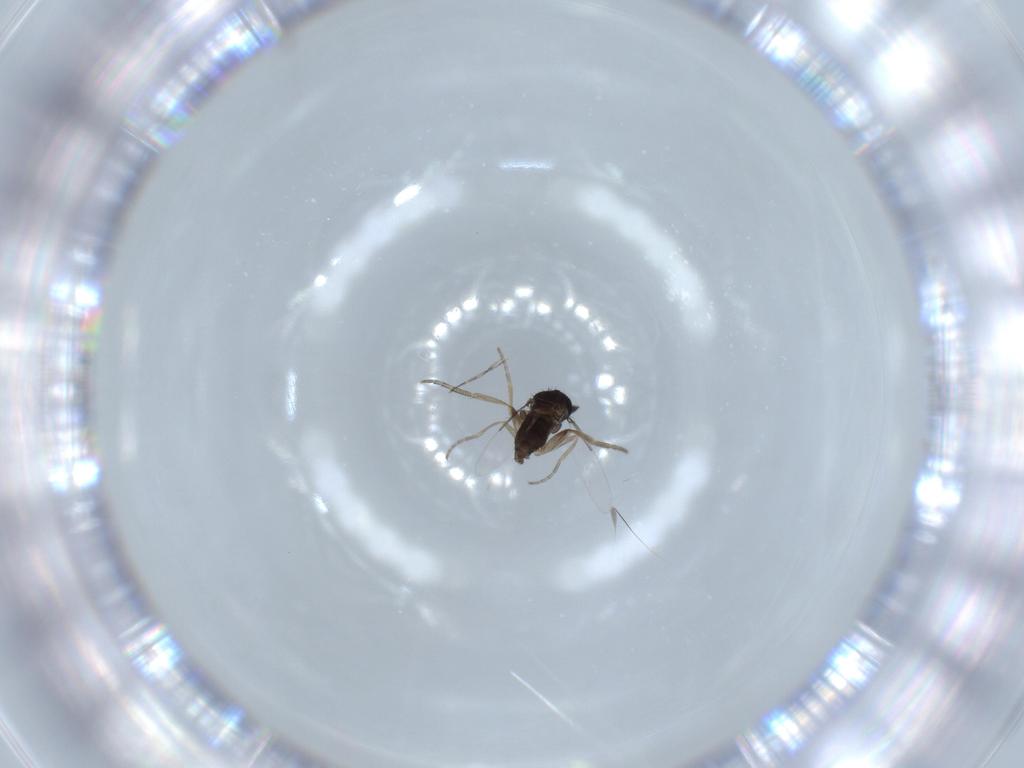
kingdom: Animalia
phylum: Arthropoda
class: Insecta
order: Diptera
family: Phoridae
